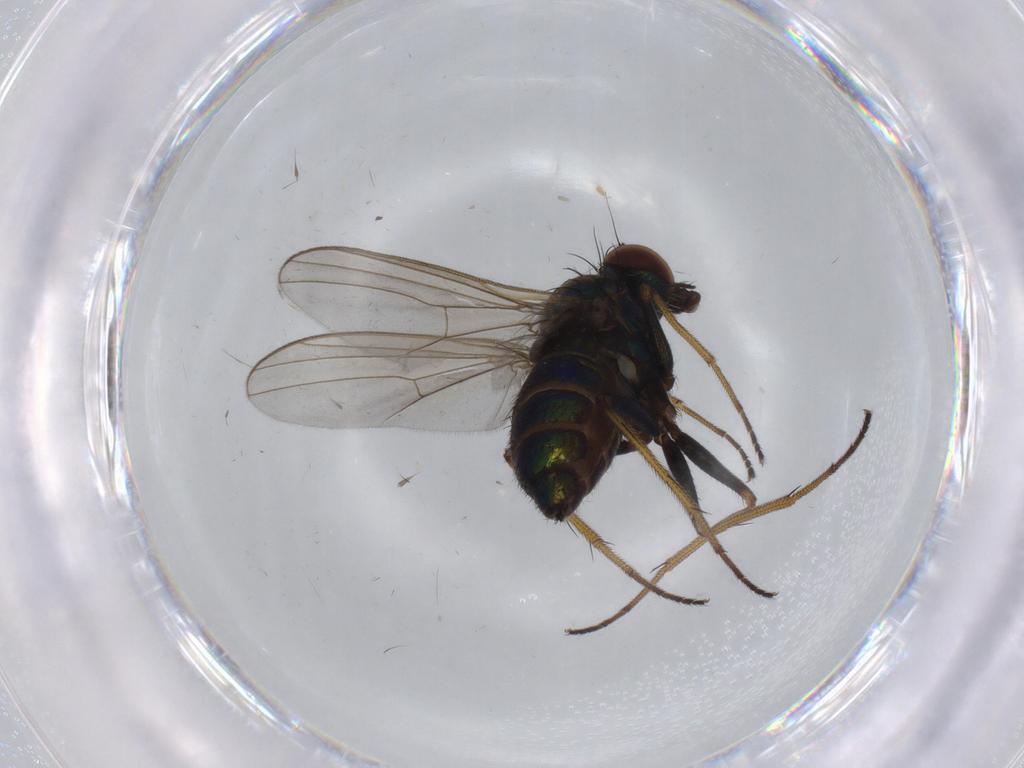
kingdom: Animalia
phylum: Arthropoda
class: Insecta
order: Diptera
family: Dolichopodidae
